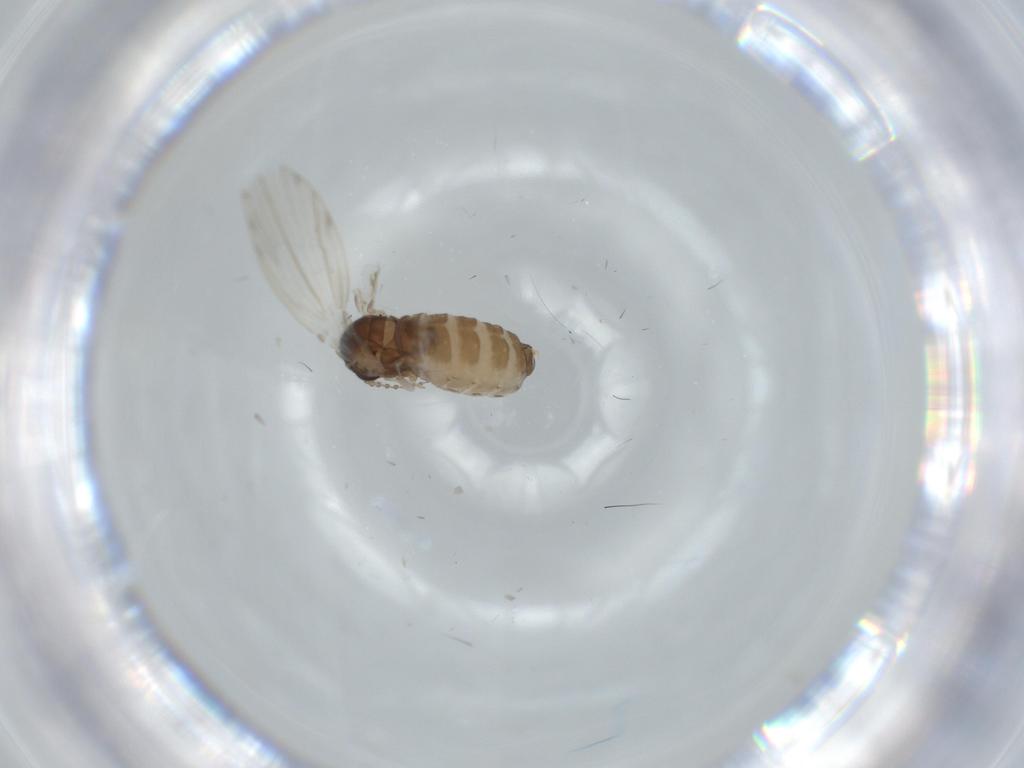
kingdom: Animalia
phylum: Arthropoda
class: Insecta
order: Diptera
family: Psychodidae
